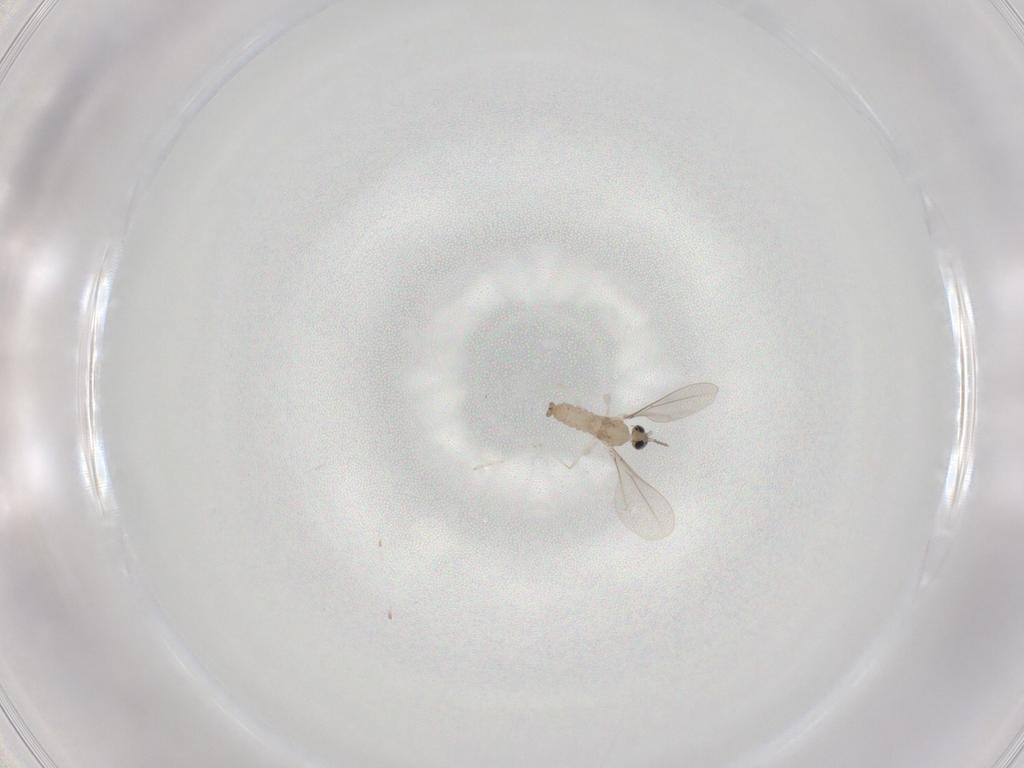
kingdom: Animalia
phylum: Arthropoda
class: Insecta
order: Diptera
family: Cecidomyiidae
